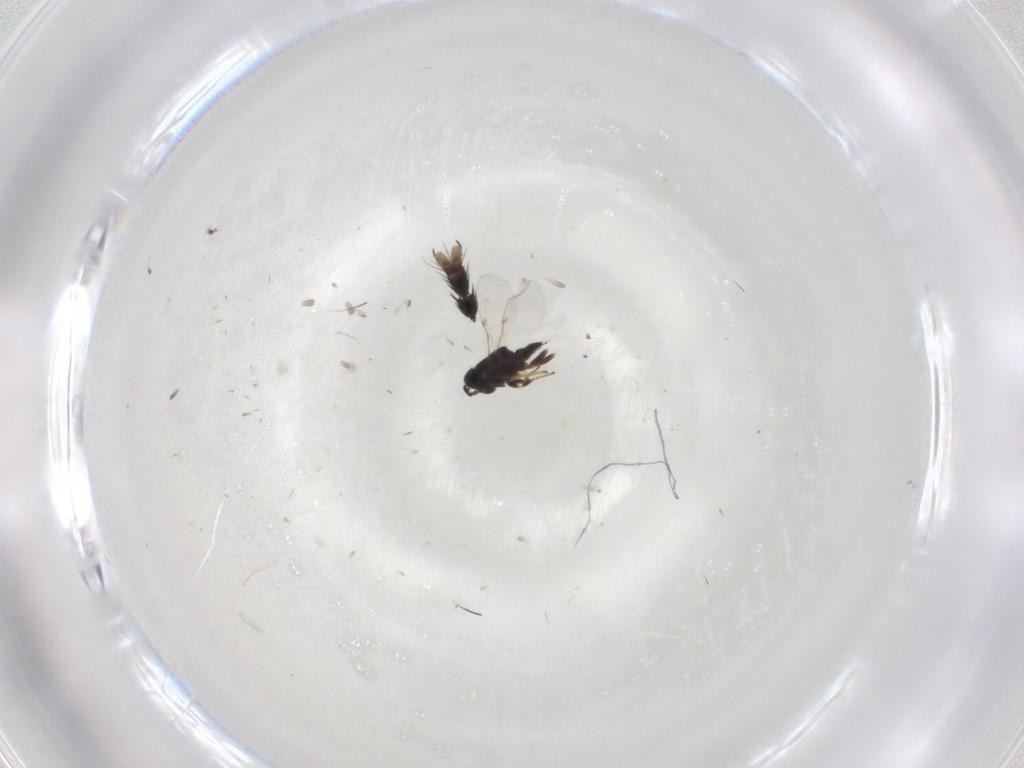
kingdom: Animalia
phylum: Arthropoda
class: Insecta
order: Hymenoptera
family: Encyrtidae
